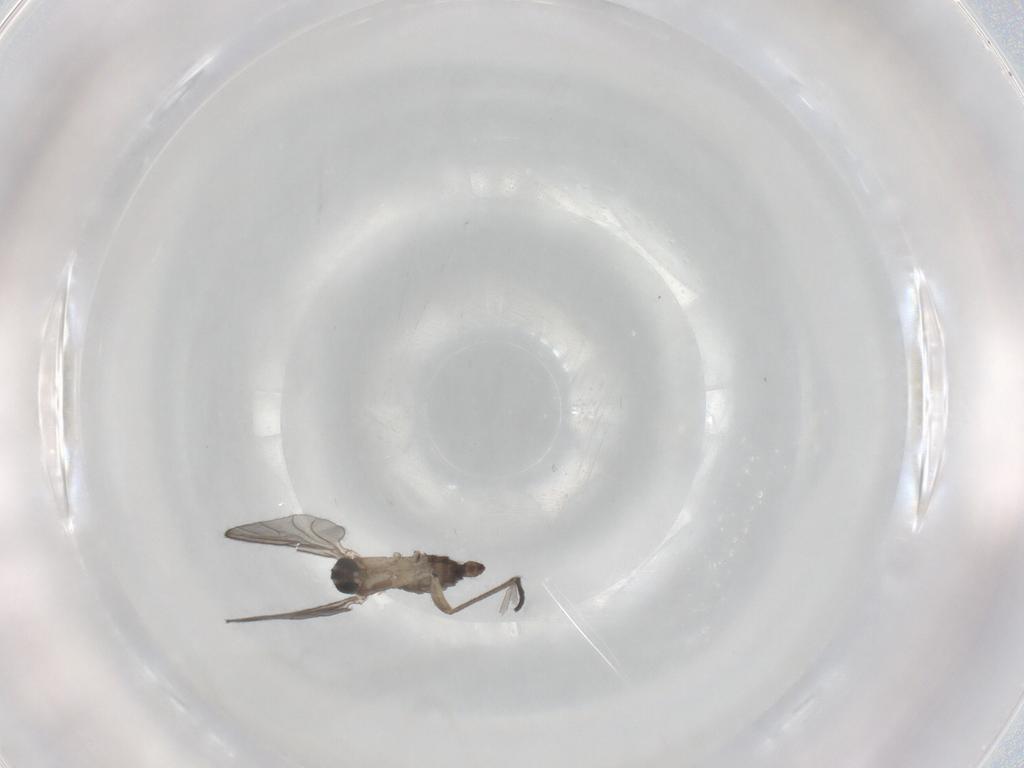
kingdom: Animalia
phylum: Arthropoda
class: Insecta
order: Diptera
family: Sciaridae
